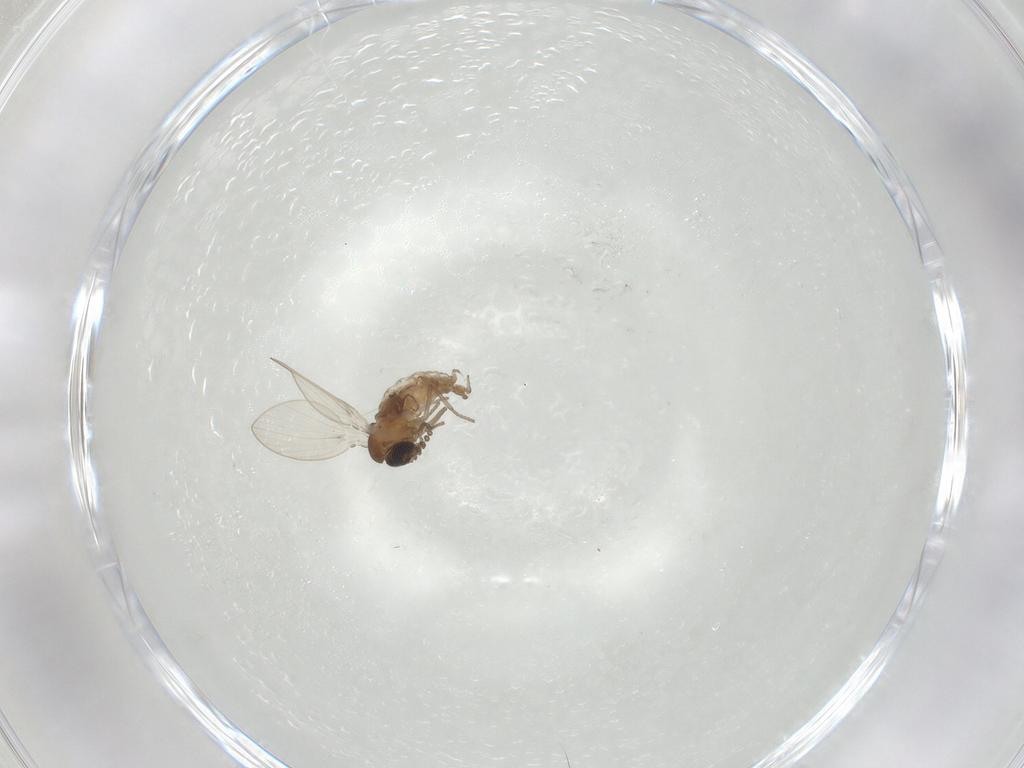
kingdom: Animalia
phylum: Arthropoda
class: Insecta
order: Diptera
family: Psychodidae
